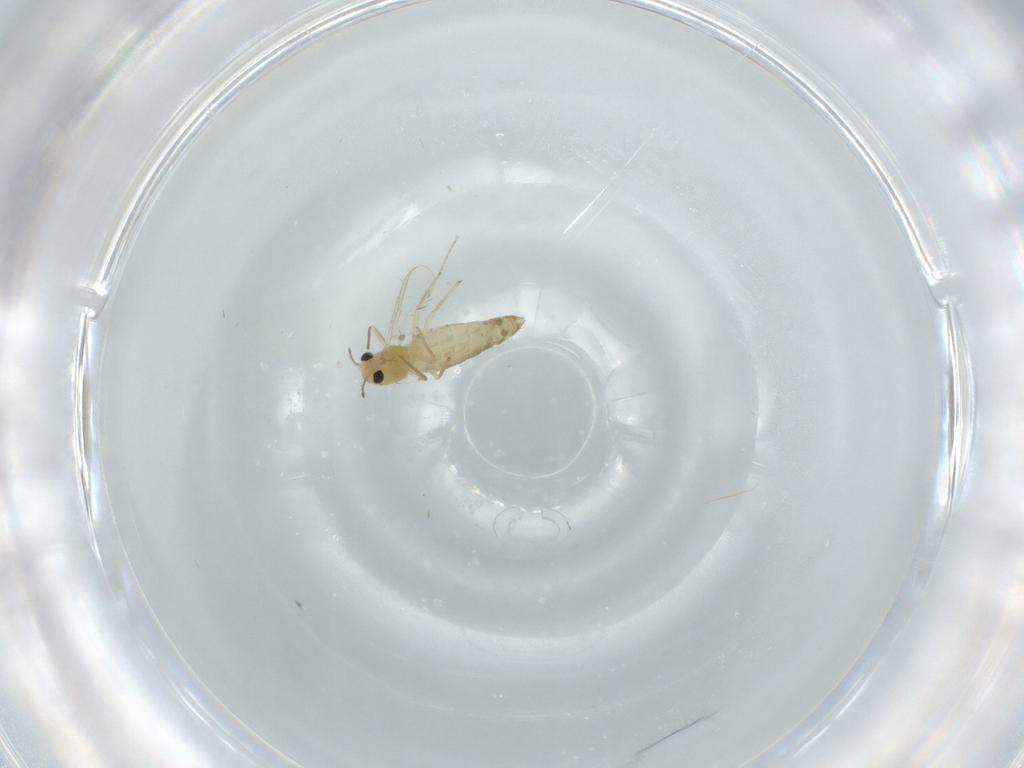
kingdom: Animalia
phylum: Arthropoda
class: Insecta
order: Diptera
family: Chironomidae
